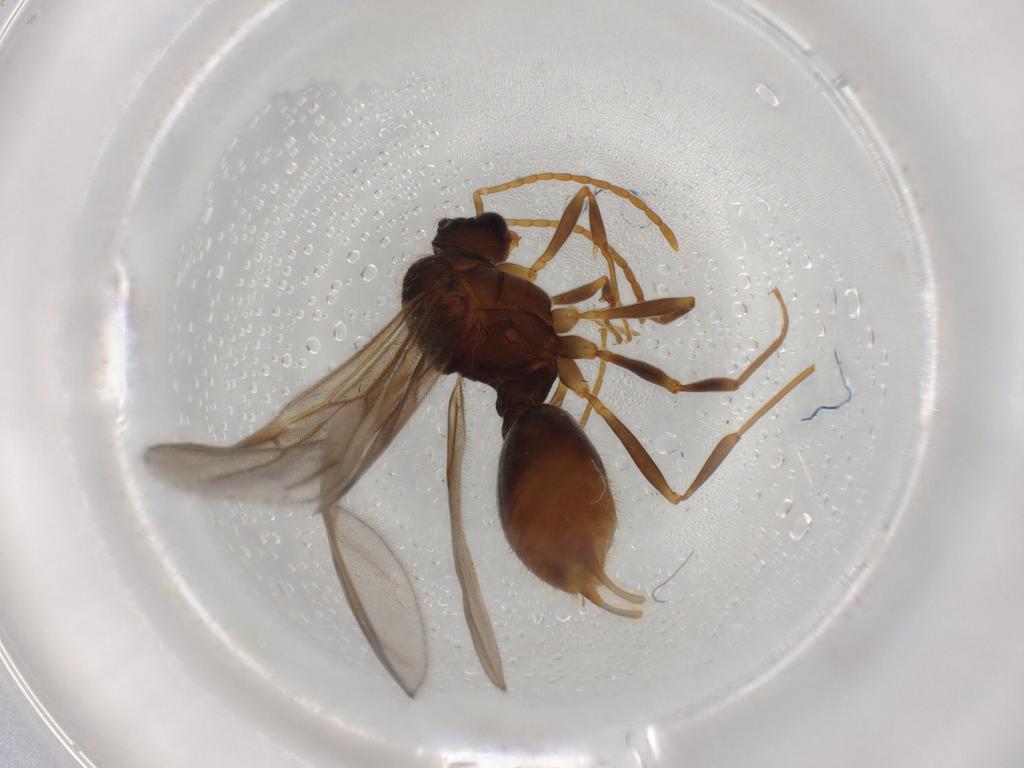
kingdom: Animalia
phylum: Arthropoda
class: Insecta
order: Hymenoptera
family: Formicidae
